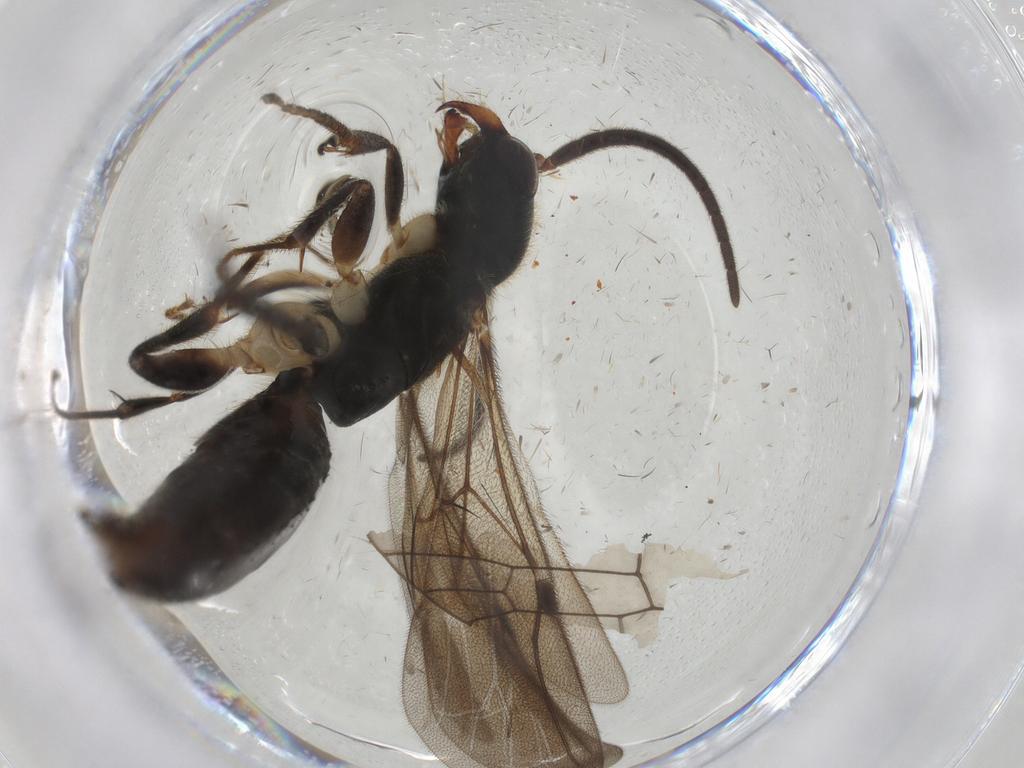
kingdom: Animalia
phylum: Arthropoda
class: Insecta
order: Hymenoptera
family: Bethylidae
